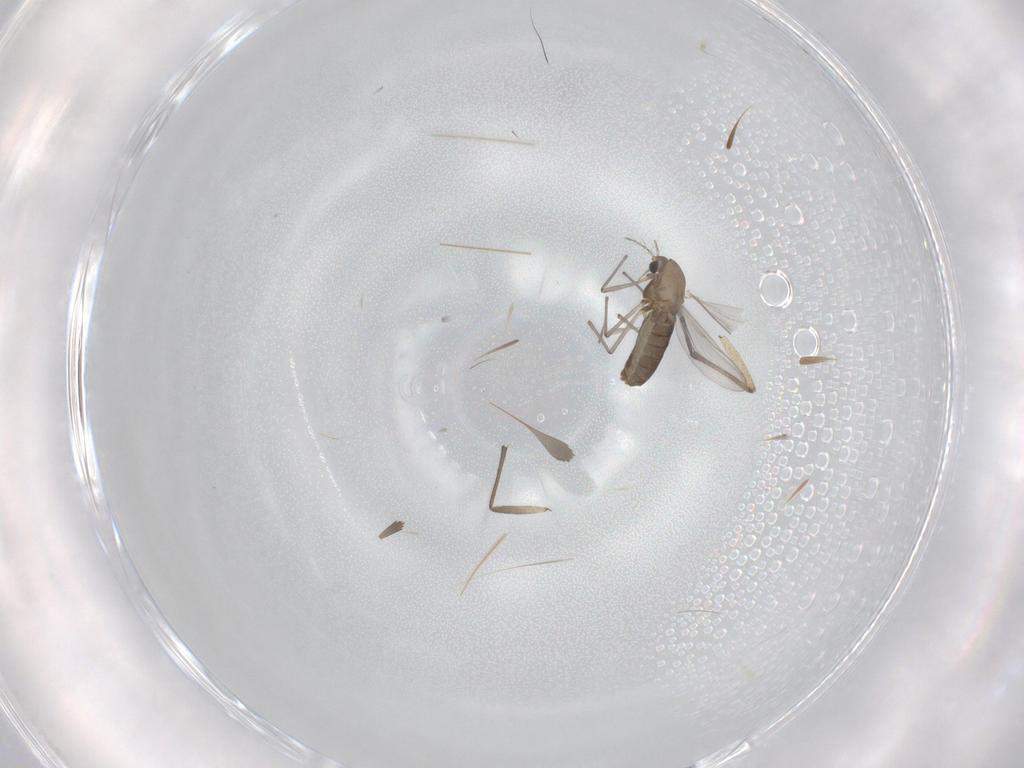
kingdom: Animalia
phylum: Arthropoda
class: Insecta
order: Diptera
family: Chironomidae
